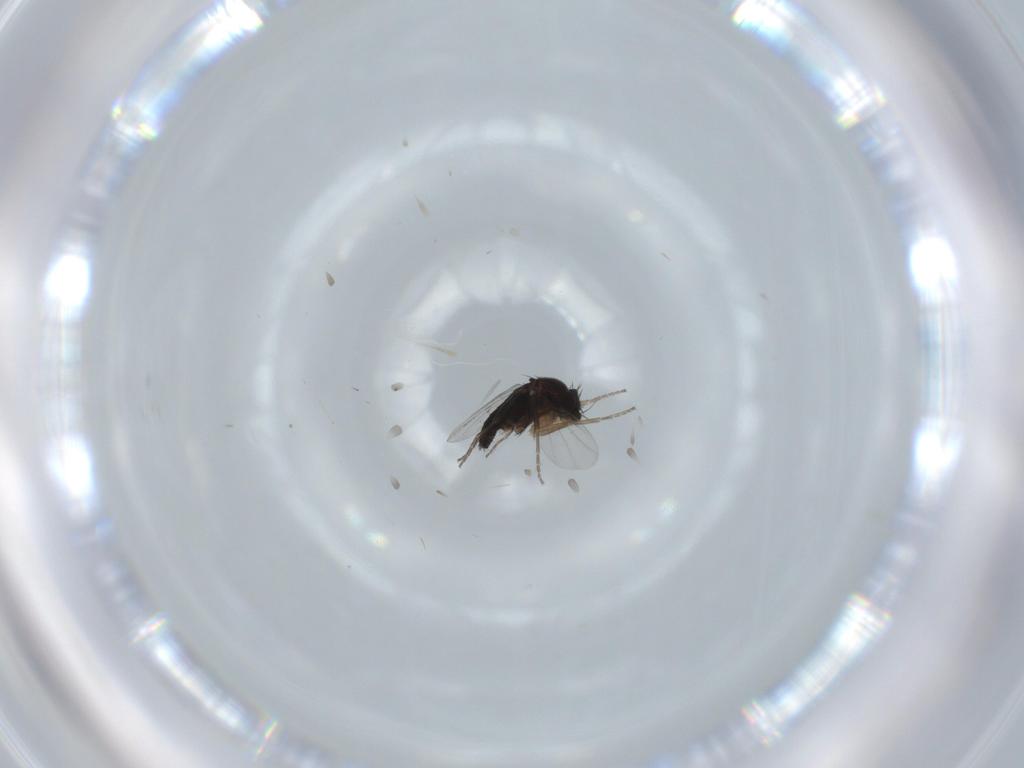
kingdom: Animalia
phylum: Arthropoda
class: Insecta
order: Diptera
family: Phoridae
